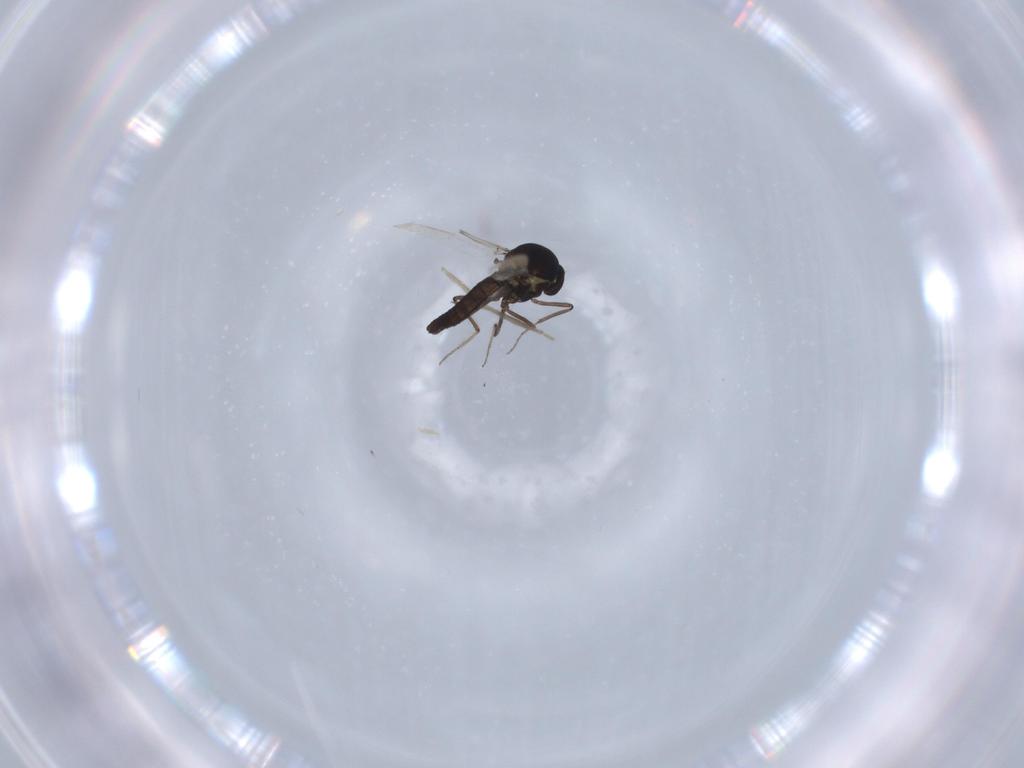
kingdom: Animalia
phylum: Arthropoda
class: Insecta
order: Diptera
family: Ceratopogonidae
